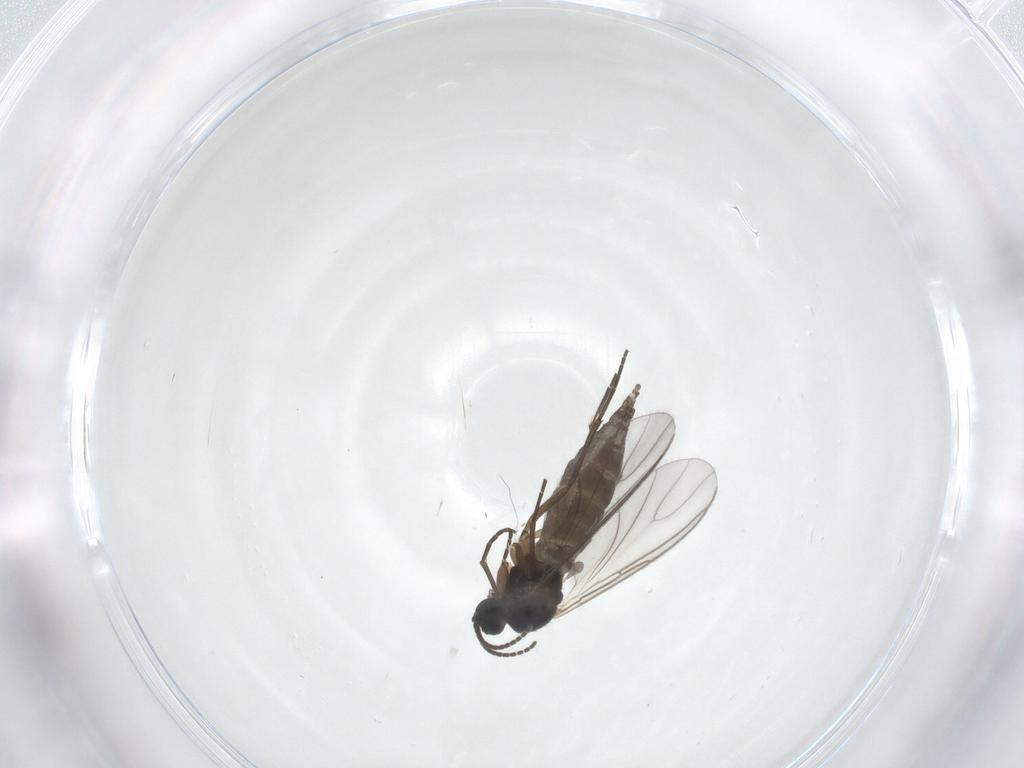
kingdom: Animalia
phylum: Arthropoda
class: Insecta
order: Diptera
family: Sciaridae
